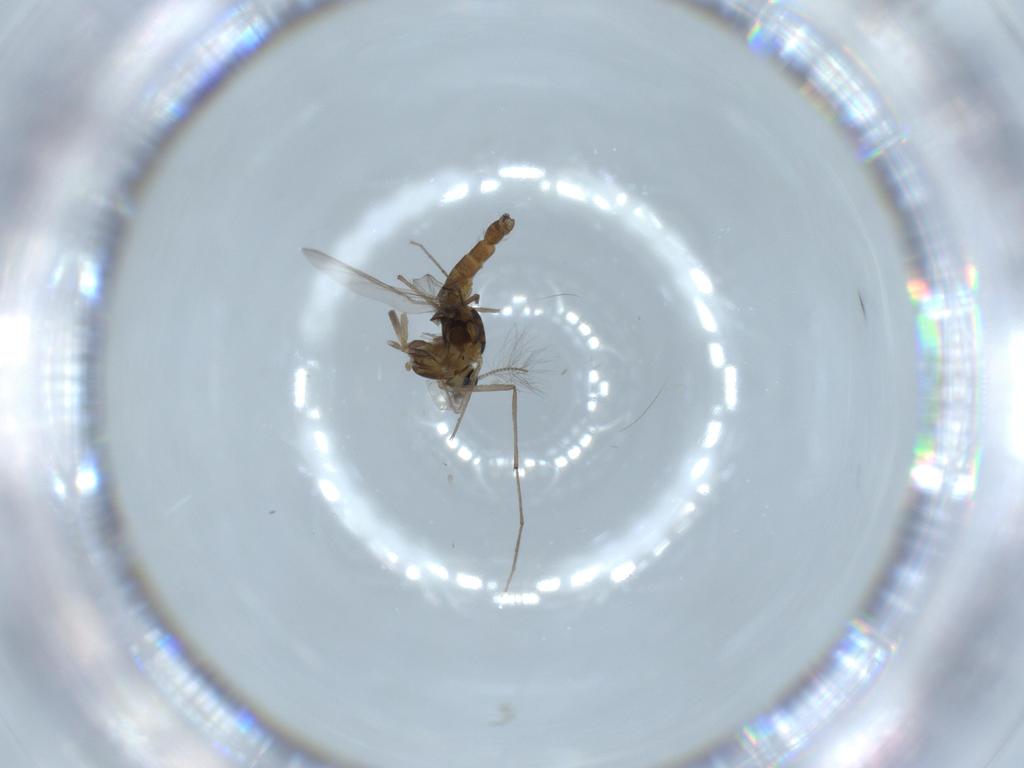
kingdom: Animalia
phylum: Arthropoda
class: Insecta
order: Diptera
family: Chironomidae
